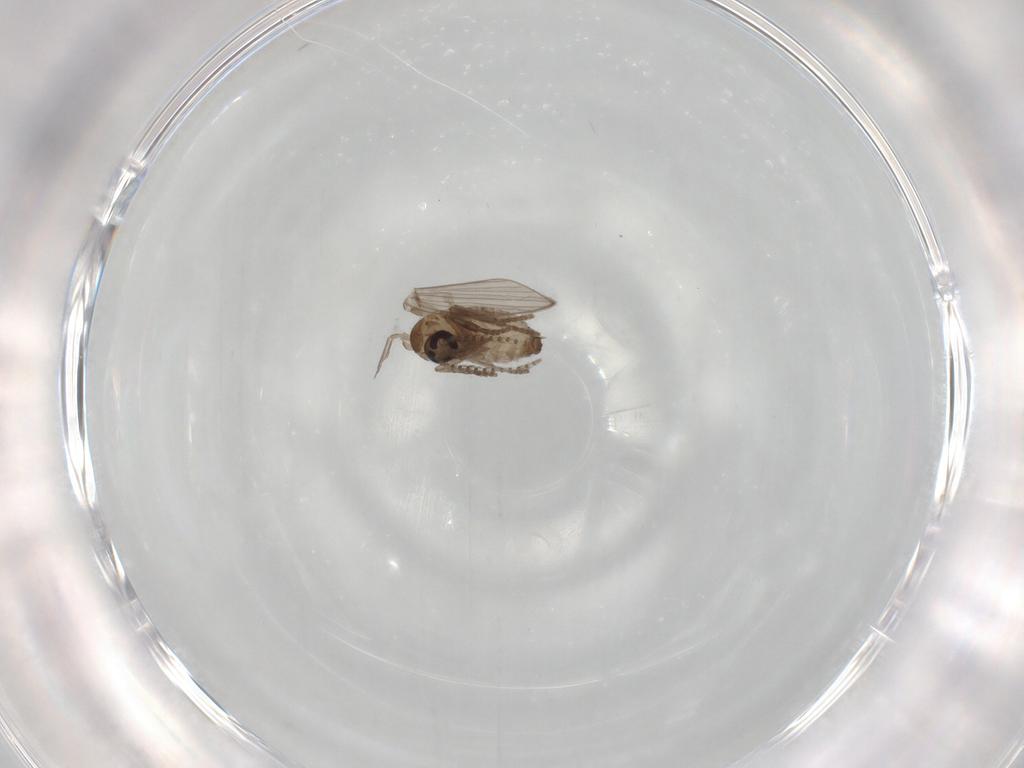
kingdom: Animalia
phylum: Arthropoda
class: Insecta
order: Diptera
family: Psychodidae
